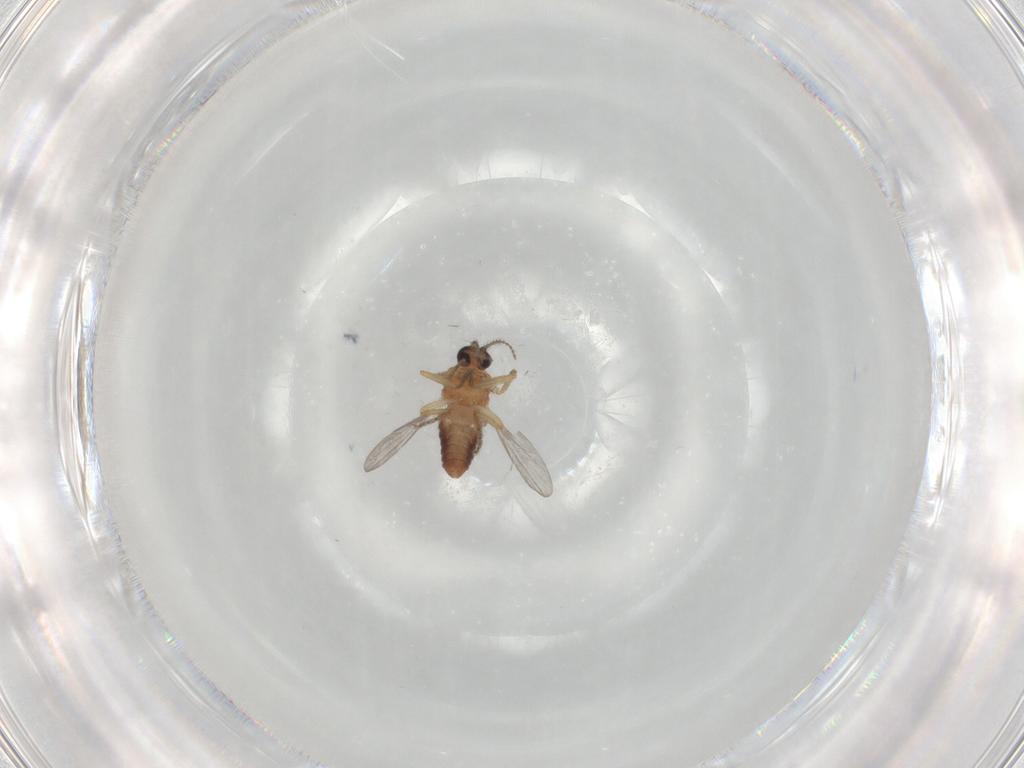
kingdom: Animalia
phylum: Arthropoda
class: Insecta
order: Diptera
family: Ceratopogonidae
